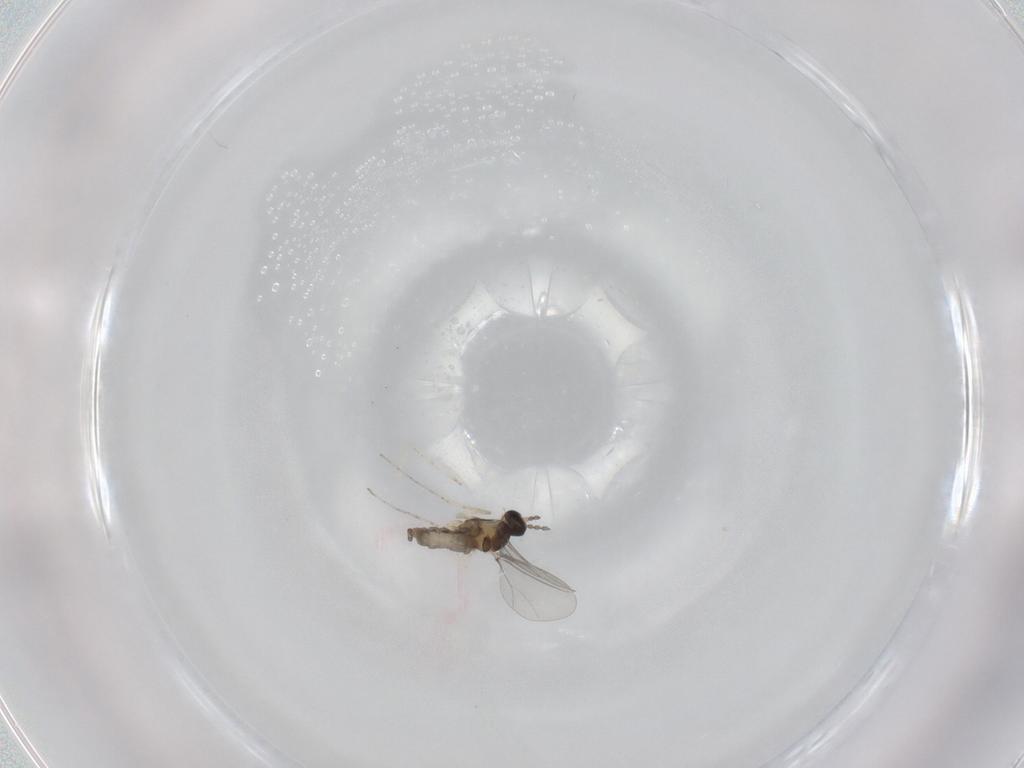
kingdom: Animalia
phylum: Arthropoda
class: Insecta
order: Diptera
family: Cecidomyiidae
